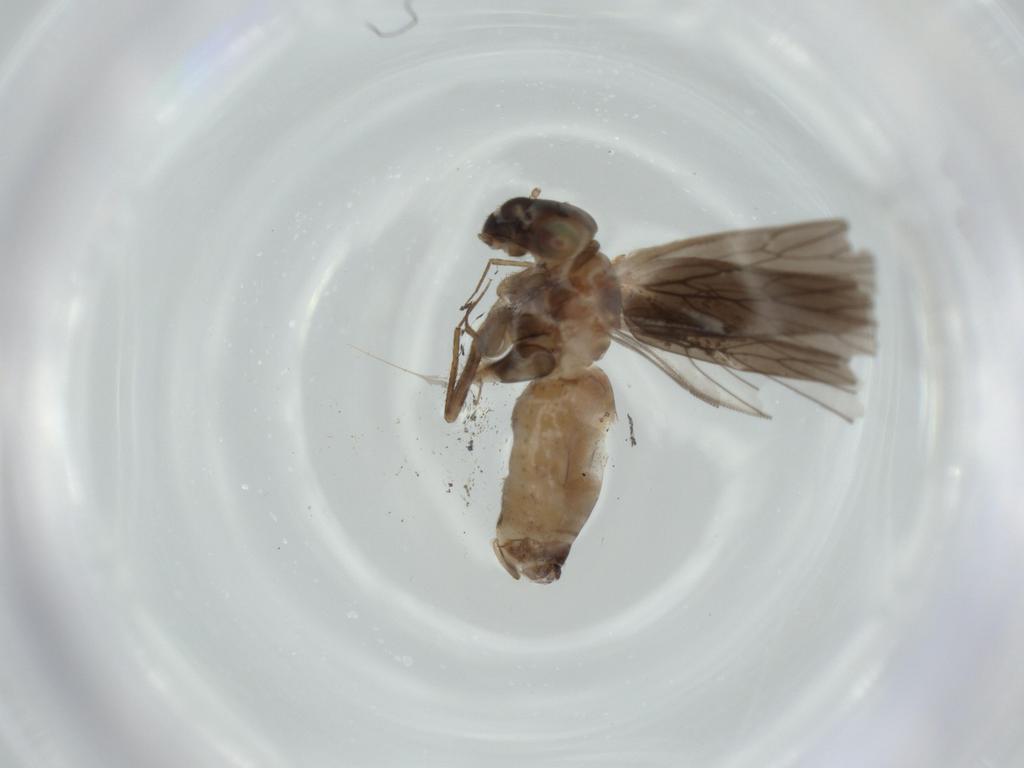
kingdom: Animalia
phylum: Arthropoda
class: Insecta
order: Psocodea
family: Lepidopsocidae
